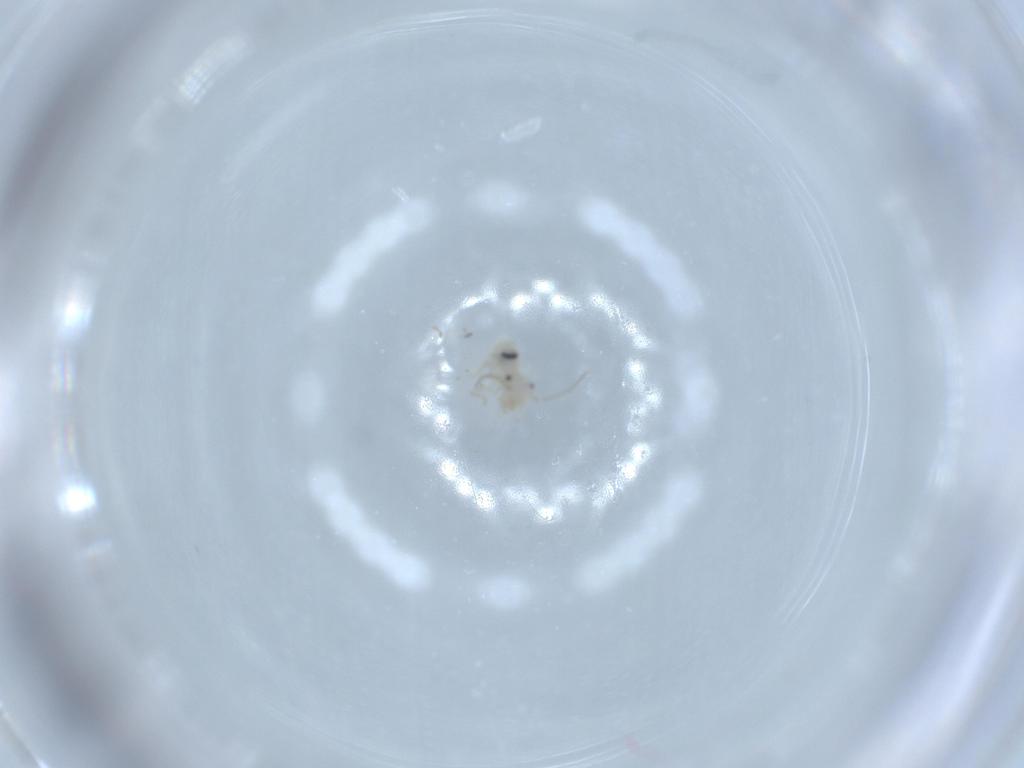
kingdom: Animalia
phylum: Arthropoda
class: Insecta
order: Psocodea
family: Caeciliusidae
